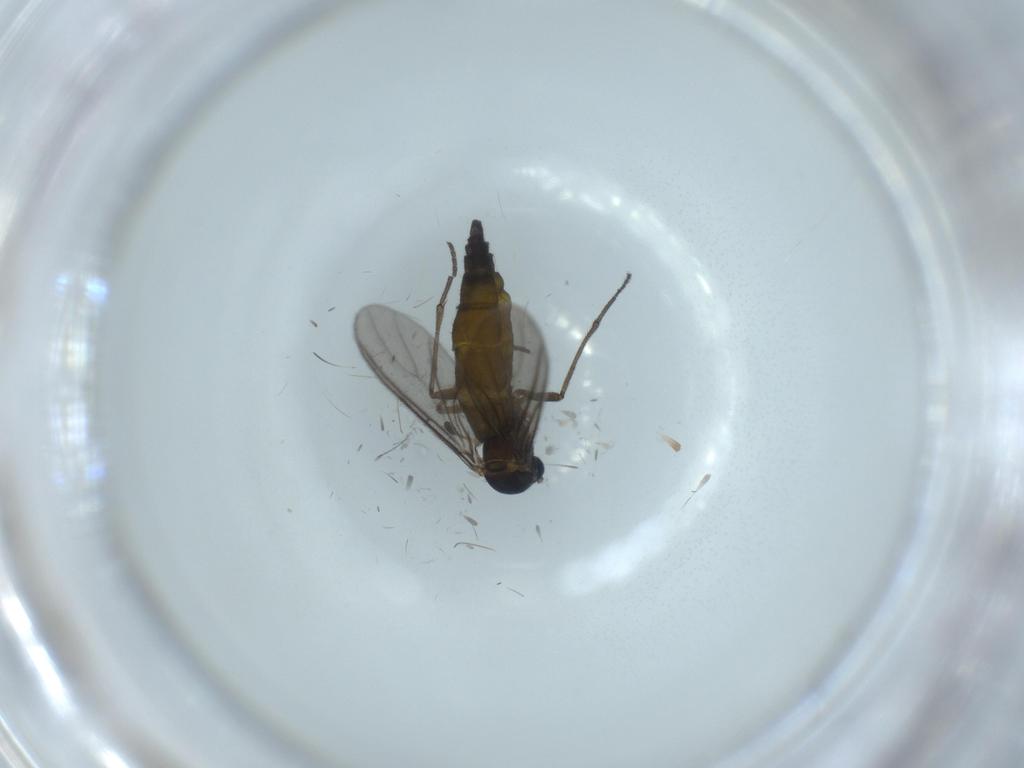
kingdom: Animalia
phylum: Arthropoda
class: Insecta
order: Diptera
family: Sciaridae
